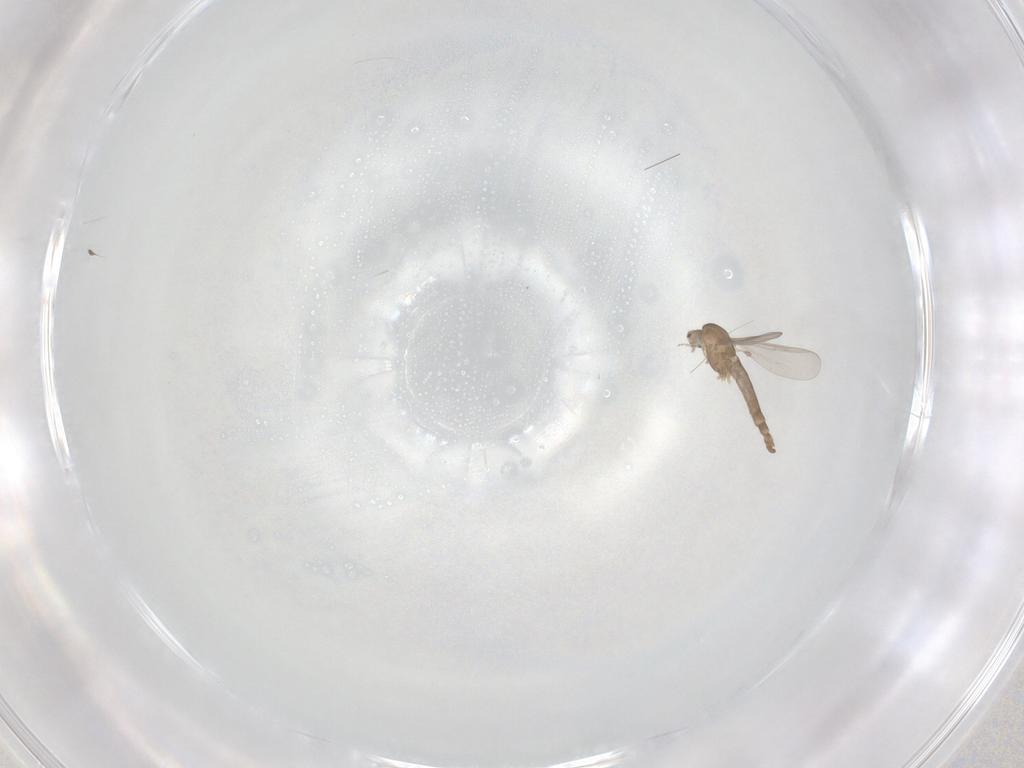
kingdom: Animalia
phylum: Arthropoda
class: Insecta
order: Diptera
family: Chironomidae
